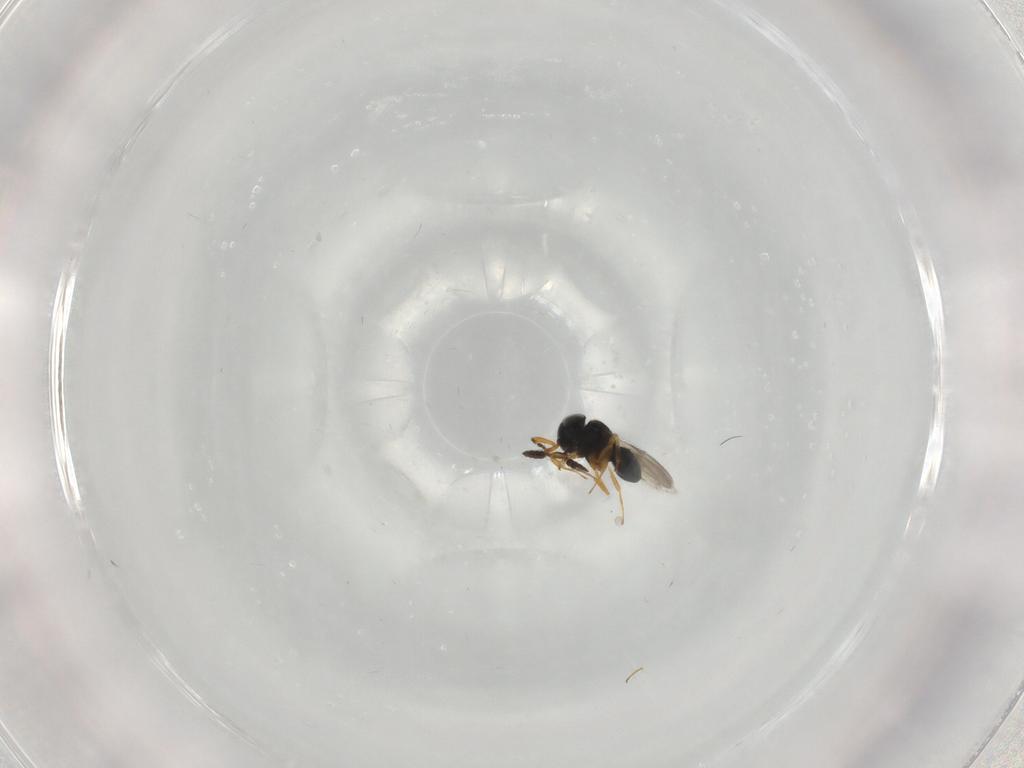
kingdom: Animalia
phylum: Arthropoda
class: Insecta
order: Hymenoptera
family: Scelionidae
